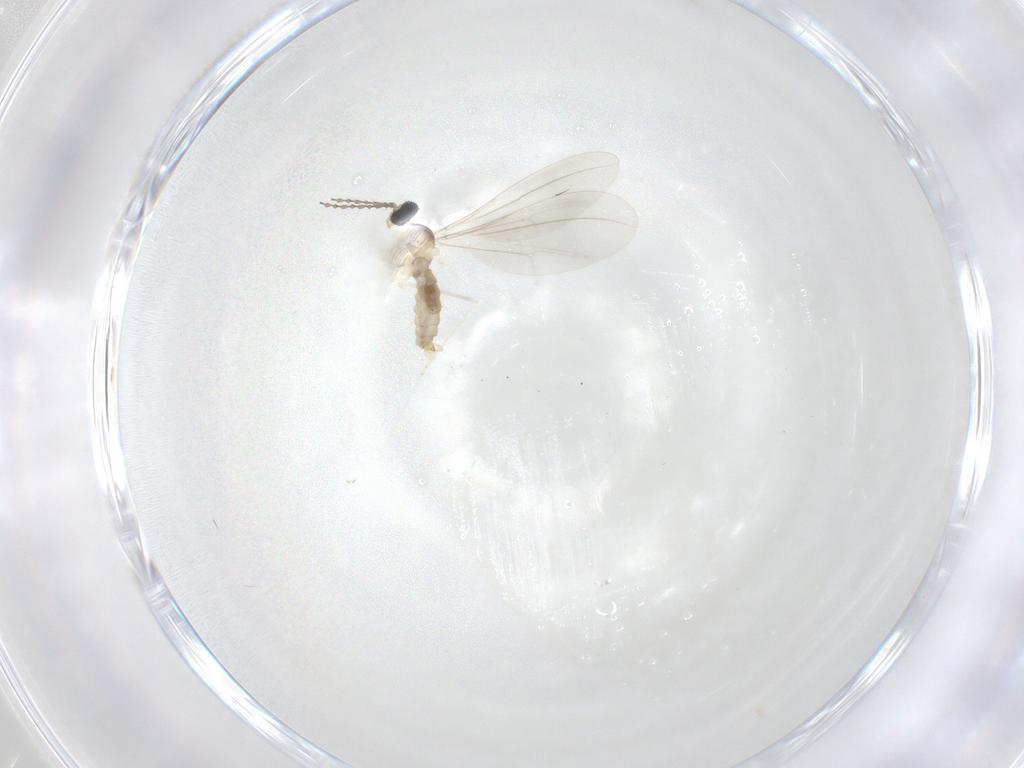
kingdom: Animalia
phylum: Arthropoda
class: Insecta
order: Diptera
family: Cecidomyiidae
